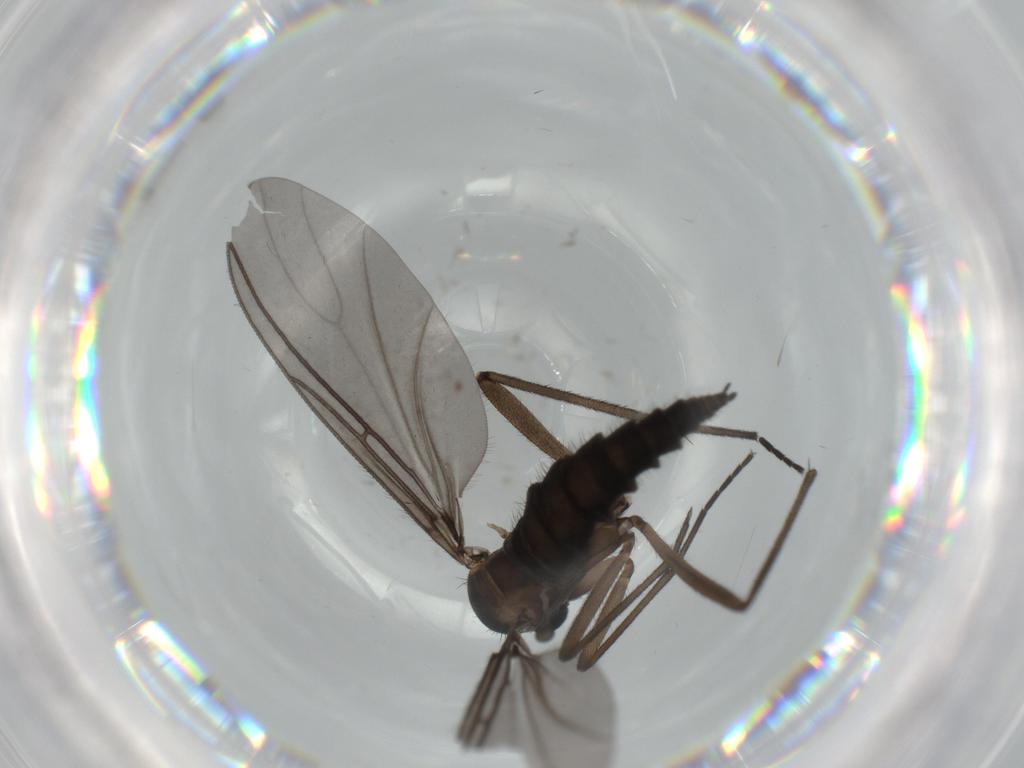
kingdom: Animalia
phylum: Arthropoda
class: Insecta
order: Diptera
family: Sciaridae
